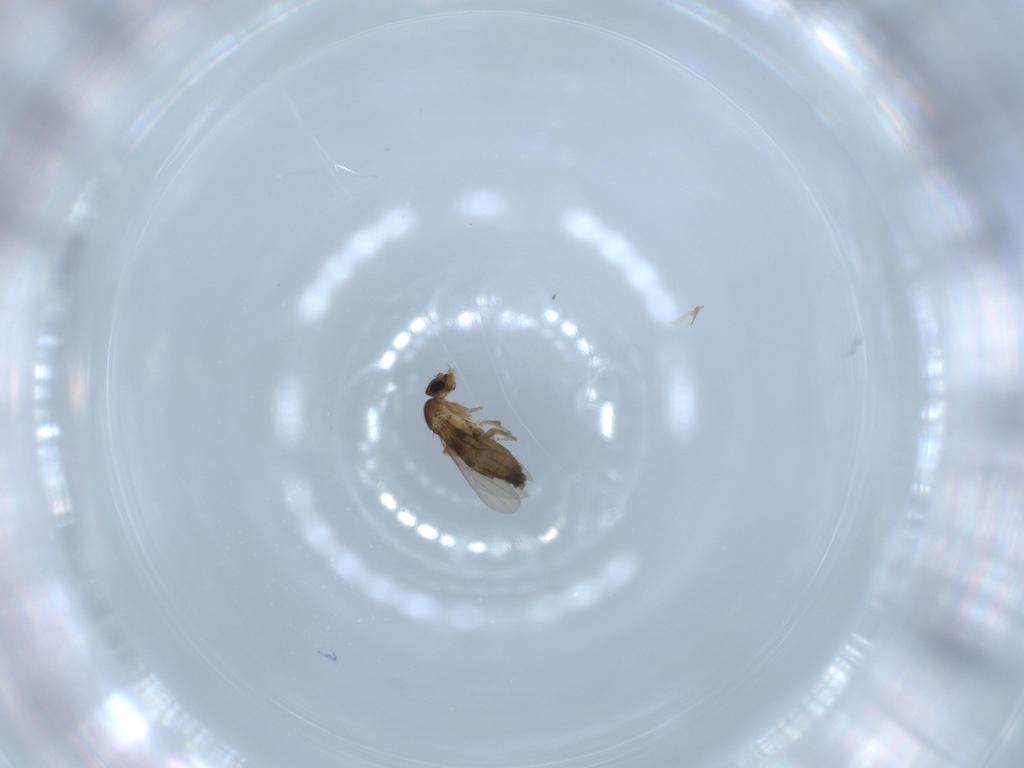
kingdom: Animalia
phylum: Arthropoda
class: Insecta
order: Diptera
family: Phoridae
